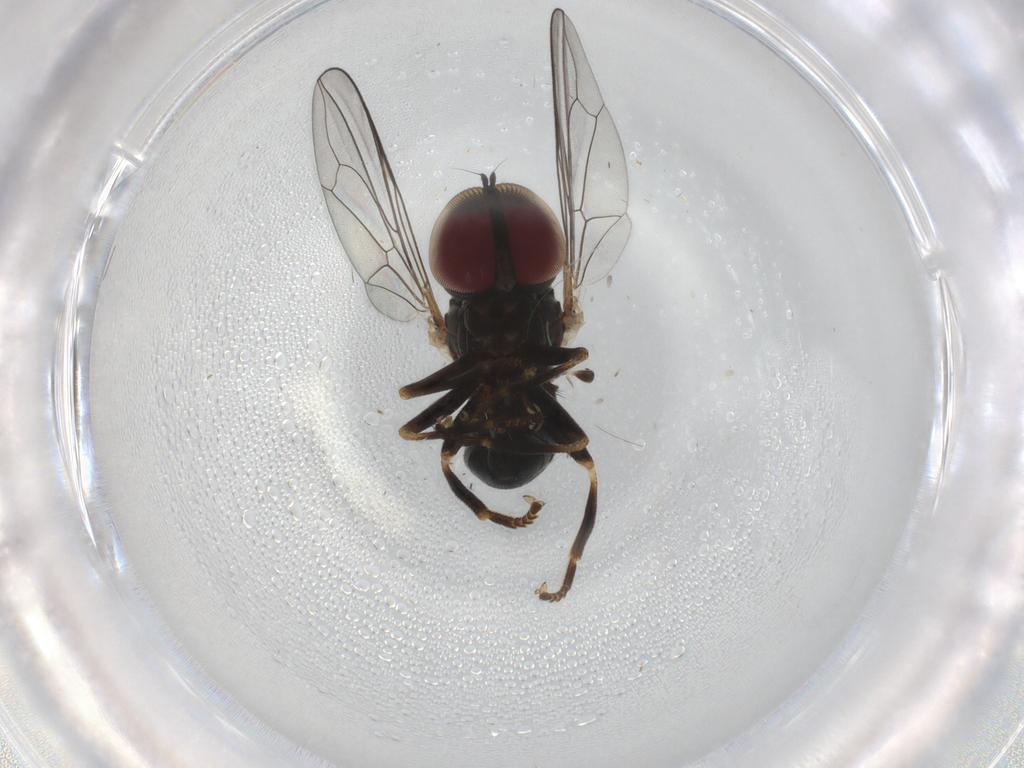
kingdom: Animalia
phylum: Arthropoda
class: Insecta
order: Diptera
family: Pipunculidae
